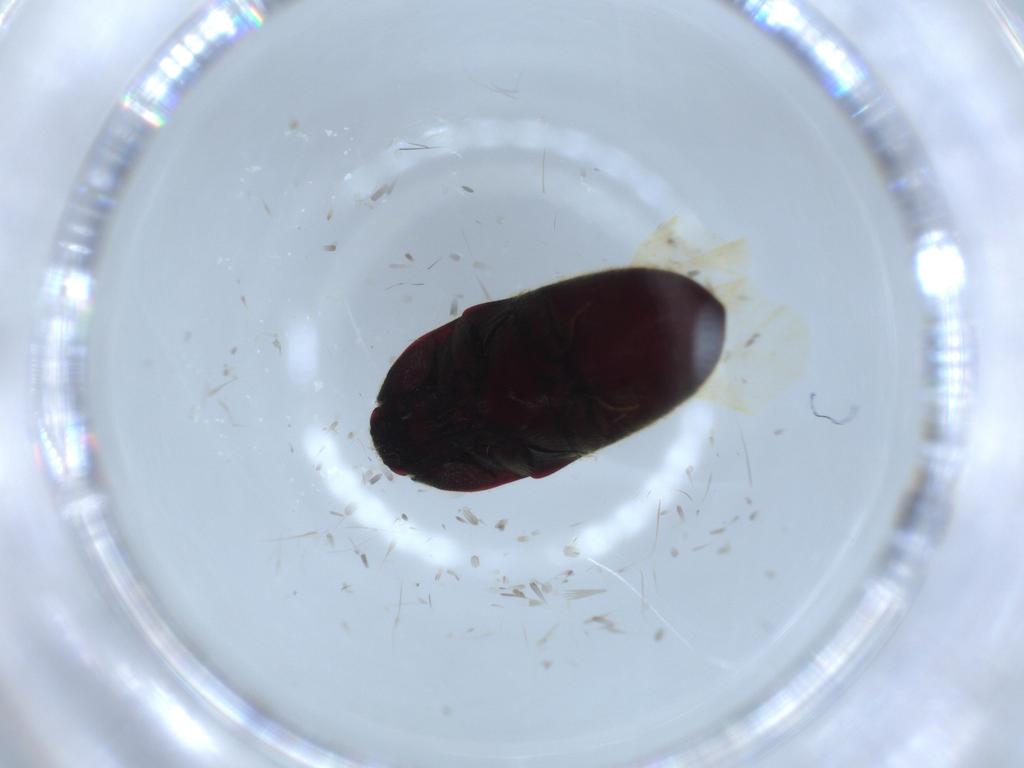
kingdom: Animalia
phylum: Arthropoda
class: Insecta
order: Coleoptera
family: Throscidae
